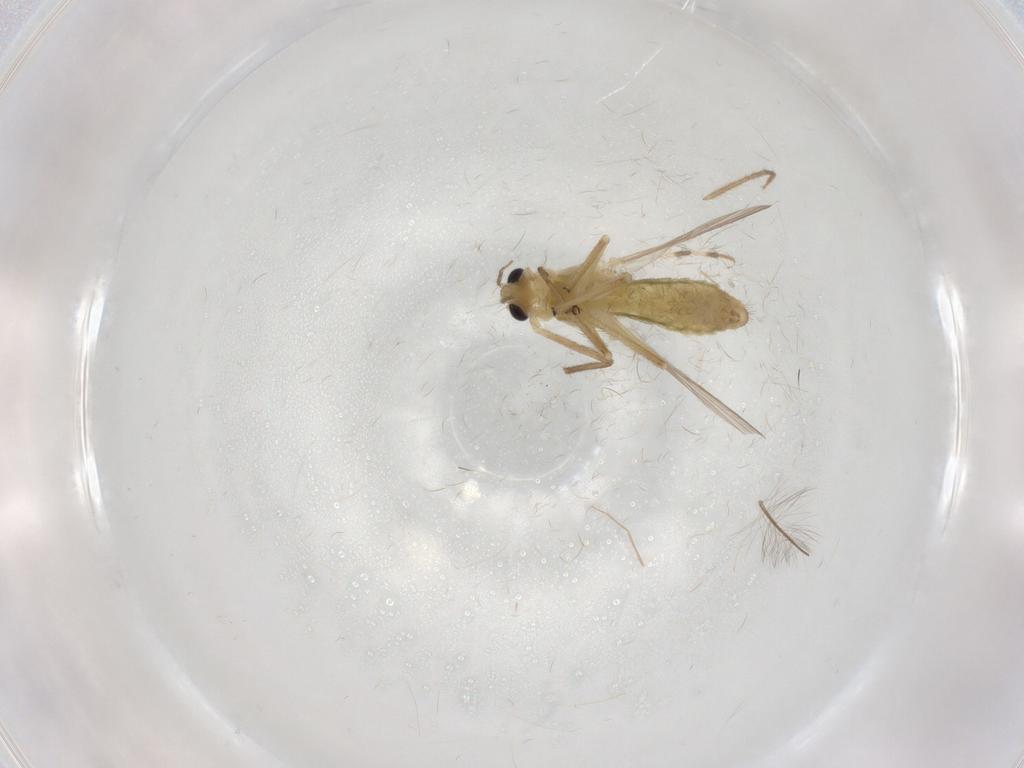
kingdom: Animalia
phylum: Arthropoda
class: Insecta
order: Diptera
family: Chironomidae
